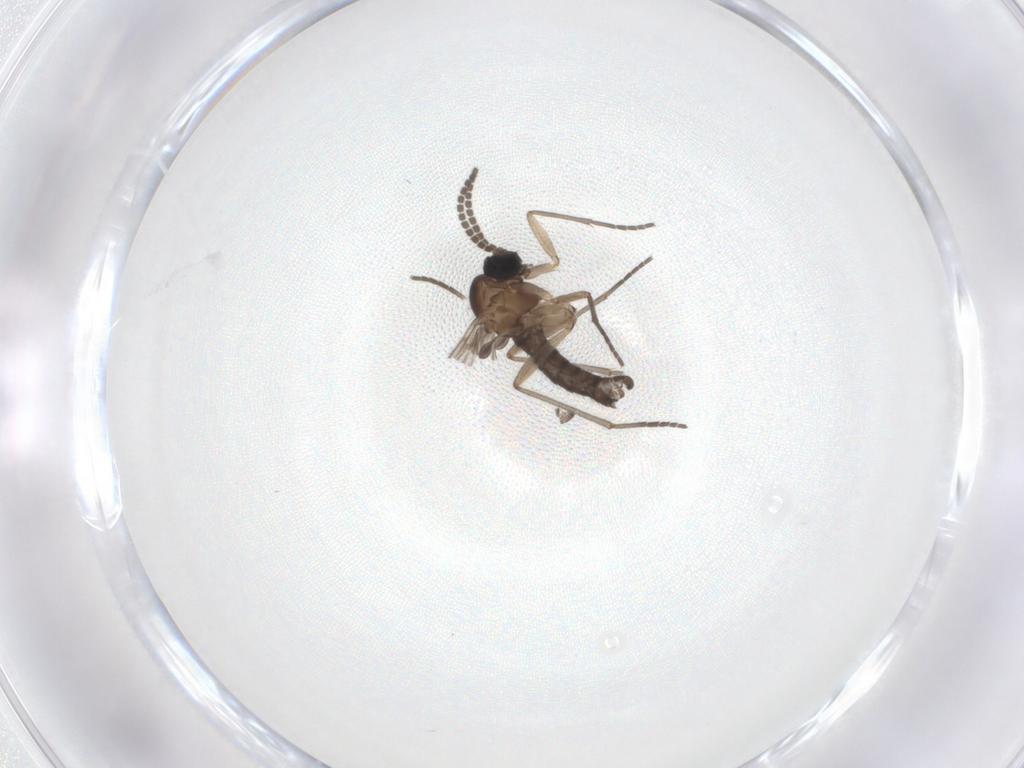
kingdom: Animalia
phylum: Arthropoda
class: Insecta
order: Diptera
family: Sciaridae
